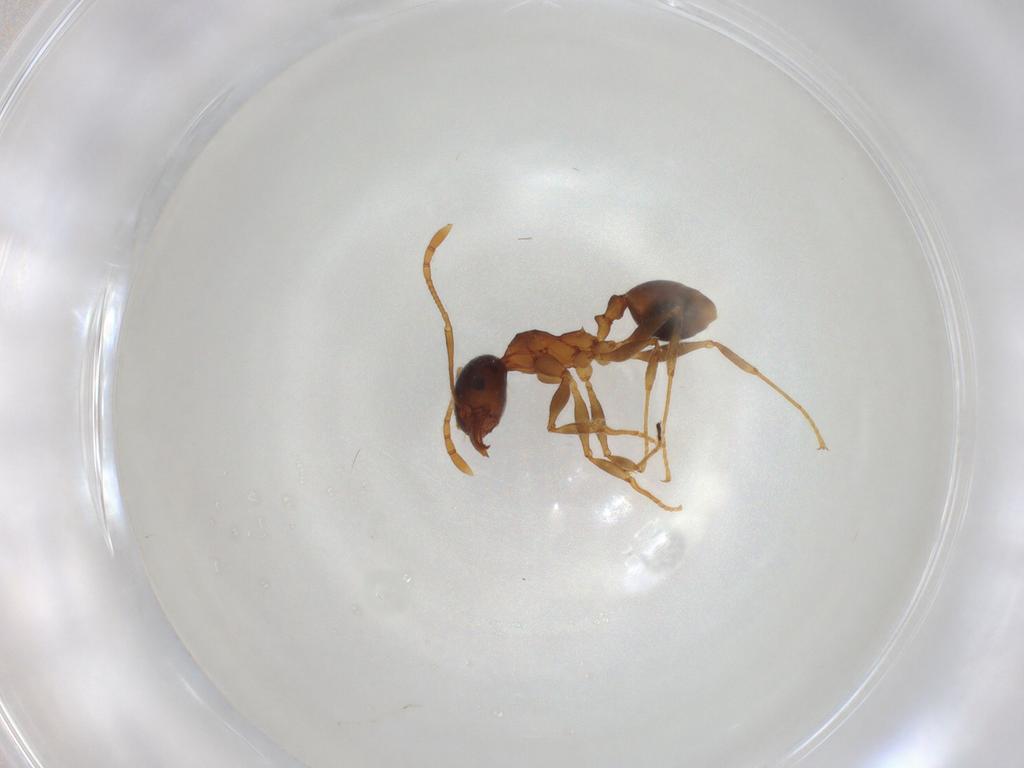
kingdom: Animalia
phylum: Arthropoda
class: Insecta
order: Hymenoptera
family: Formicidae
